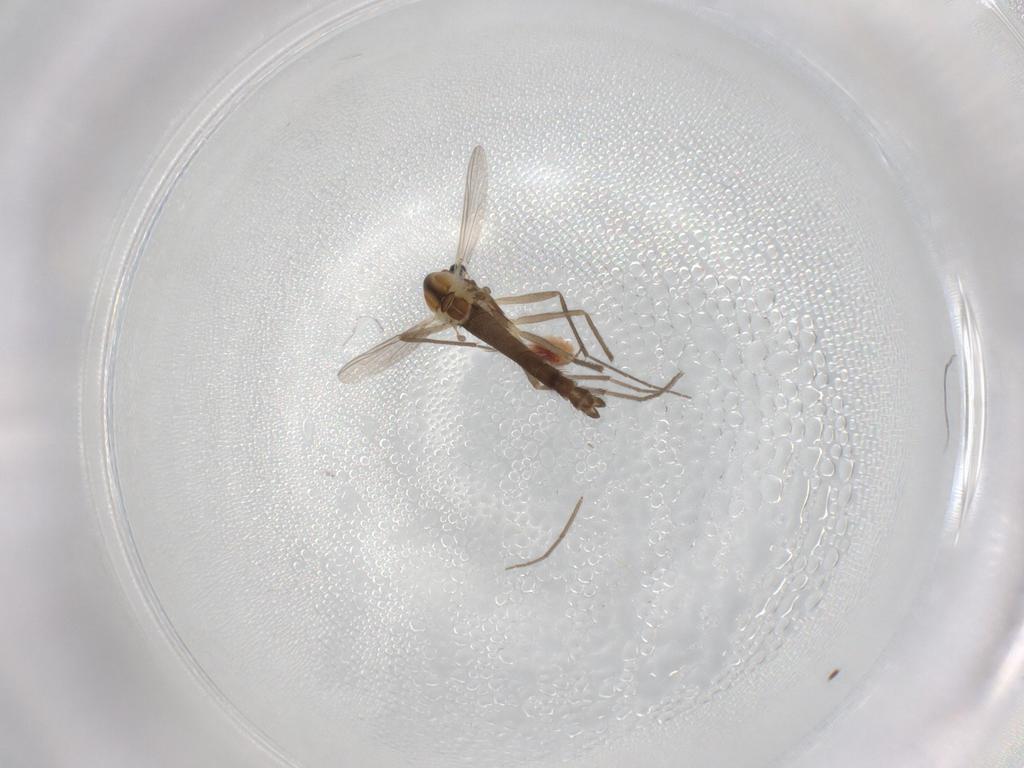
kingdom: Animalia
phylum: Arthropoda
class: Insecta
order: Diptera
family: Chironomidae
